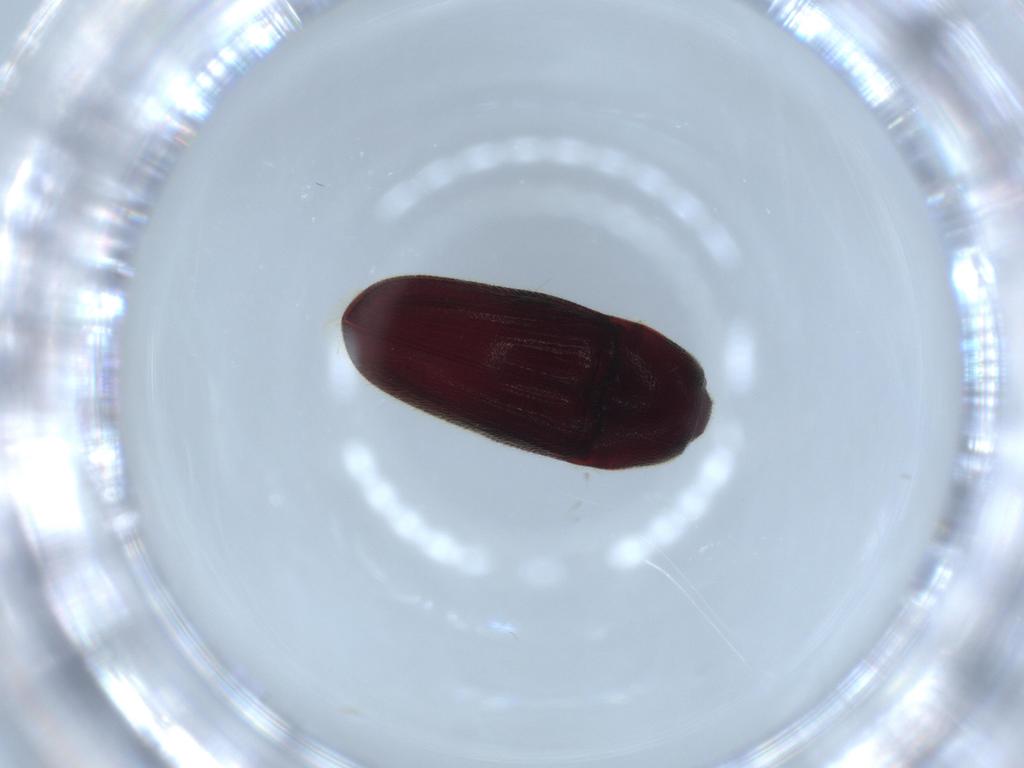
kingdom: Animalia
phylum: Arthropoda
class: Insecta
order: Coleoptera
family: Throscidae
